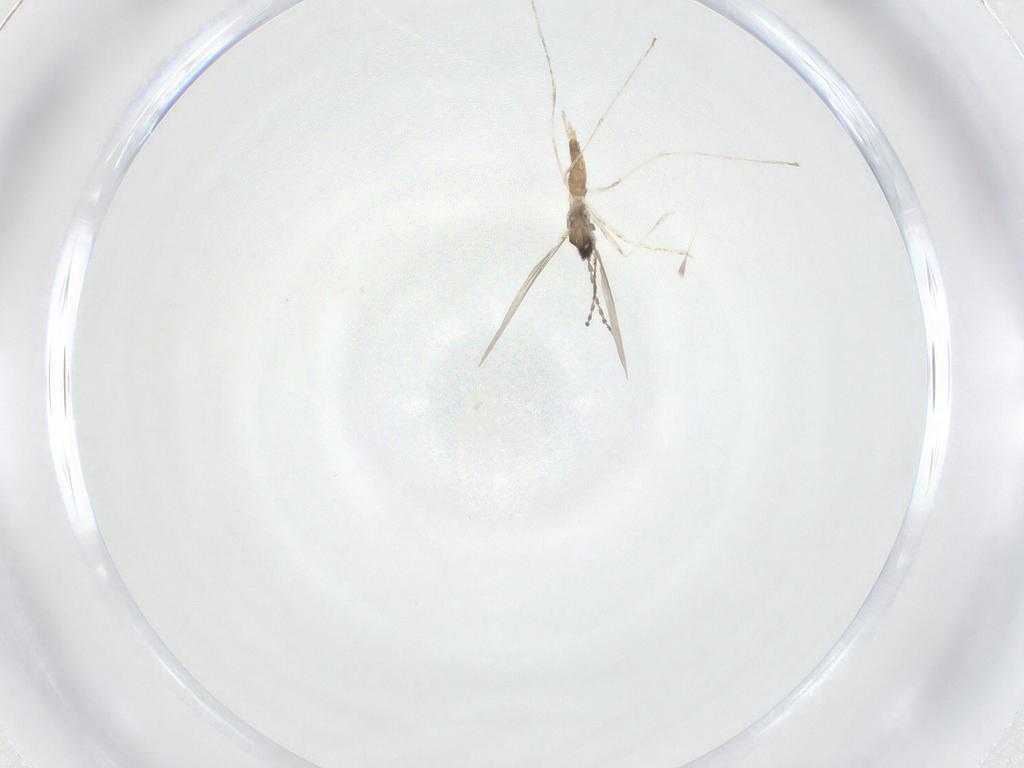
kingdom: Animalia
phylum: Arthropoda
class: Insecta
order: Diptera
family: Cecidomyiidae
